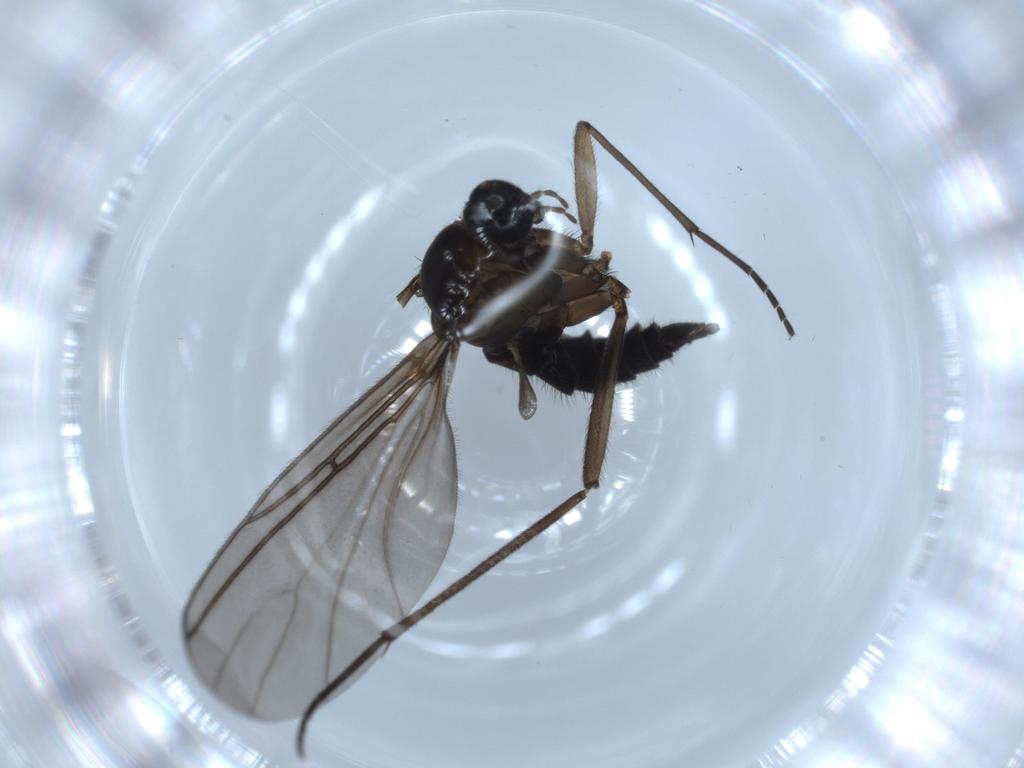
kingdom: Animalia
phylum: Arthropoda
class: Insecta
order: Diptera
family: Sciaridae
